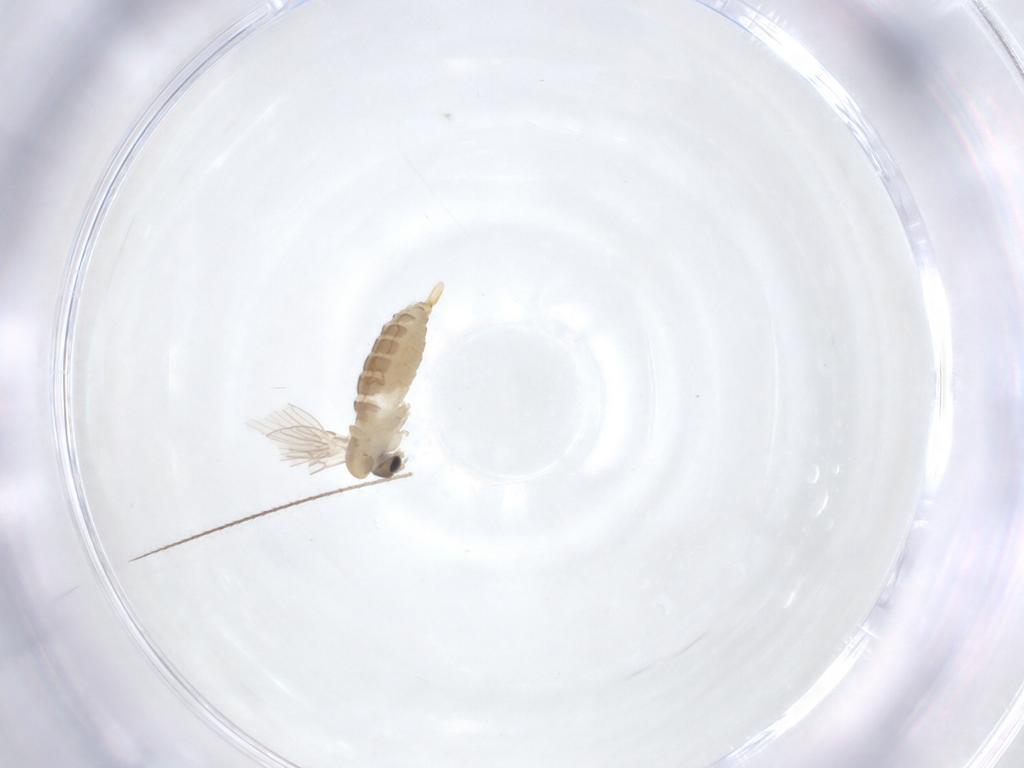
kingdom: Animalia
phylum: Arthropoda
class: Insecta
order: Diptera
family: Psychodidae
